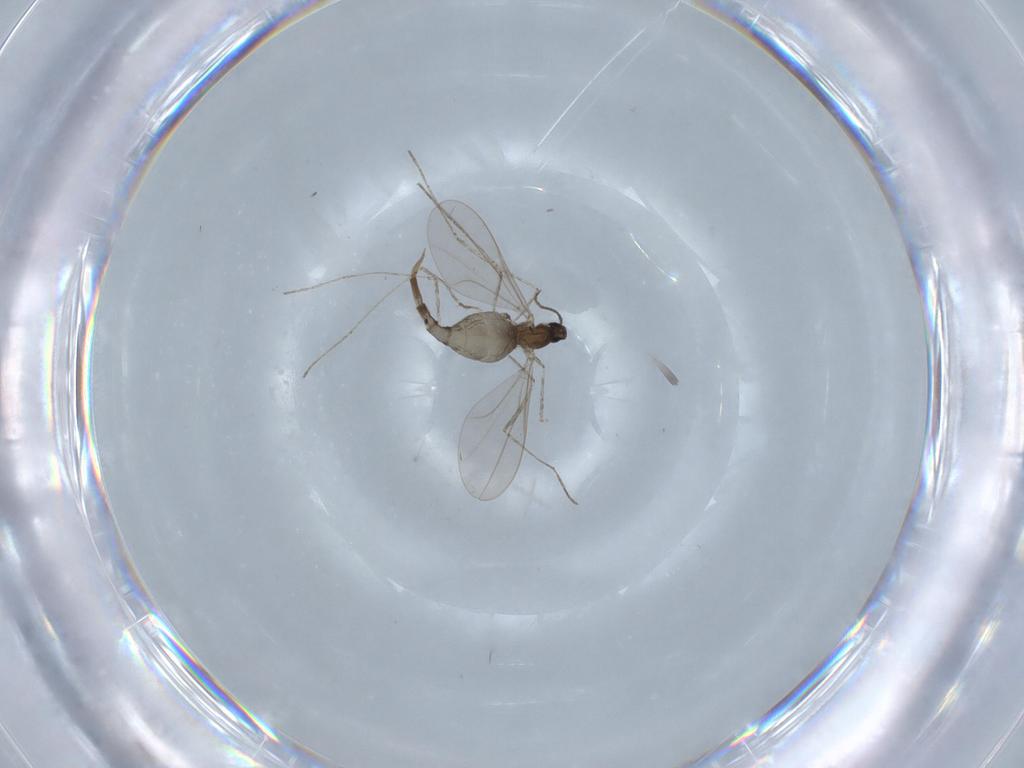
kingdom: Animalia
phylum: Arthropoda
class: Insecta
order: Diptera
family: Cecidomyiidae
